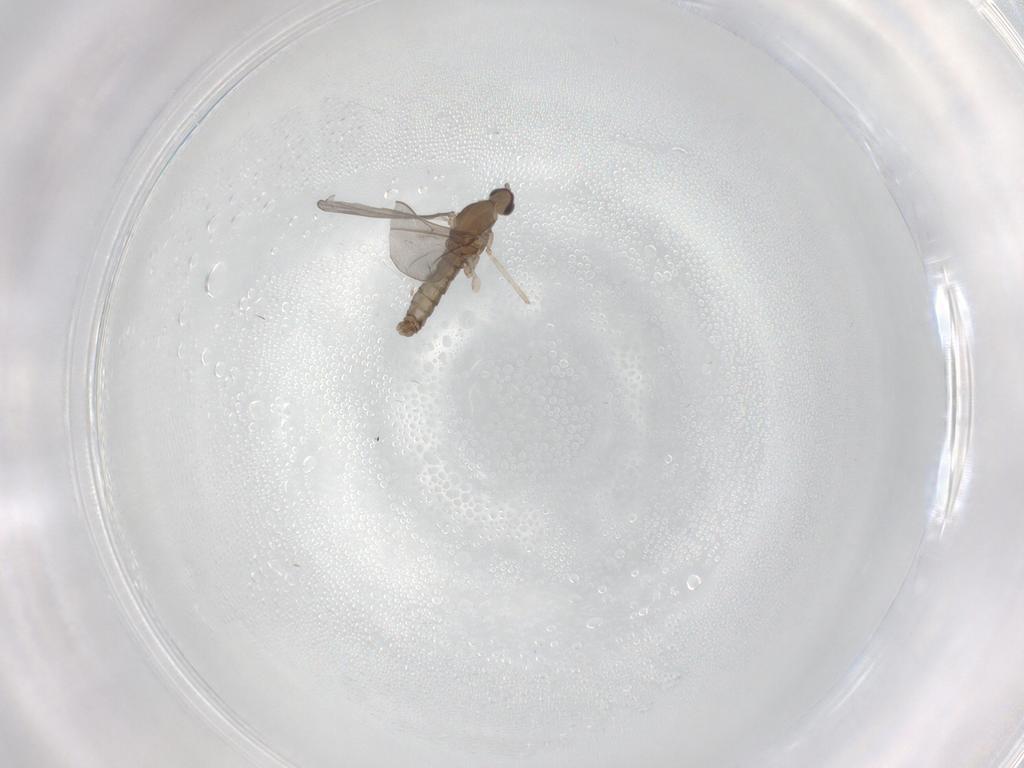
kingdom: Animalia
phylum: Arthropoda
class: Insecta
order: Diptera
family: Cecidomyiidae
